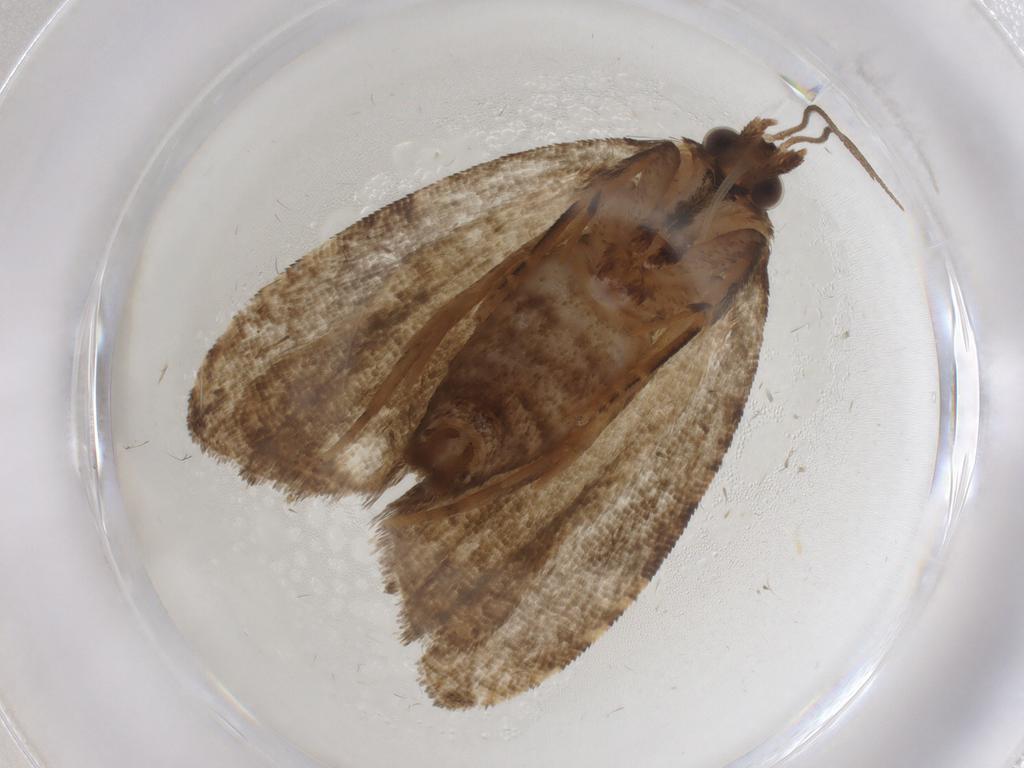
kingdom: Animalia
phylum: Arthropoda
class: Insecta
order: Lepidoptera
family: Tortricidae
